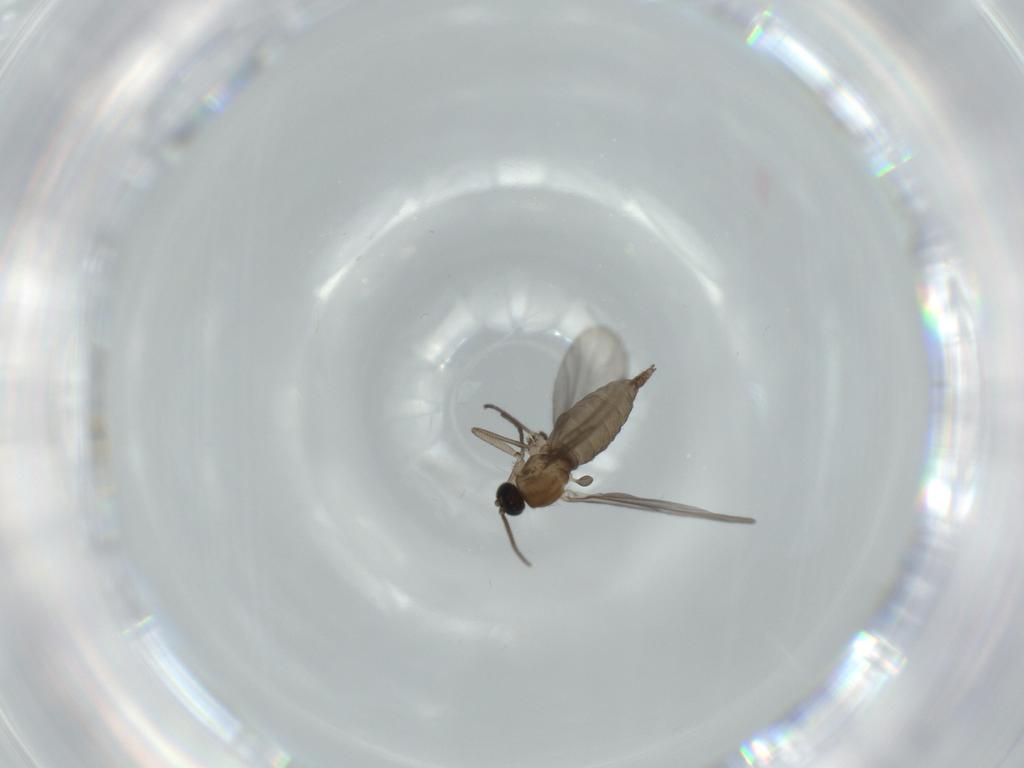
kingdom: Animalia
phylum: Arthropoda
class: Insecta
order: Diptera
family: Sciaridae
